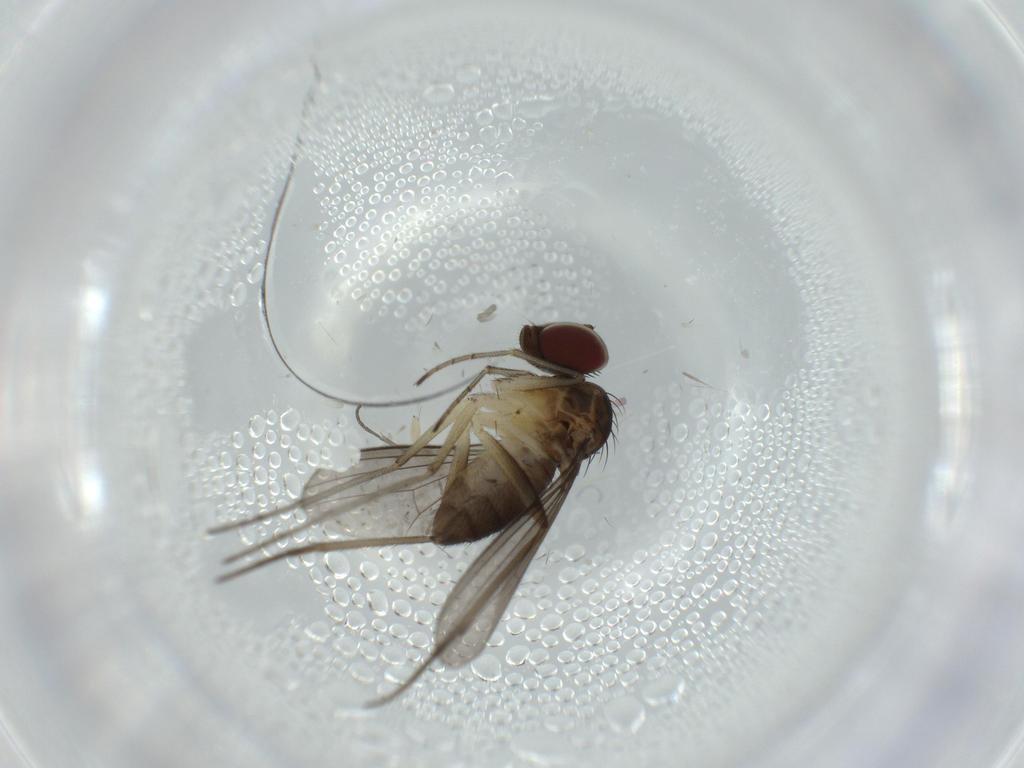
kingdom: Animalia
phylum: Arthropoda
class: Insecta
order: Diptera
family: Dolichopodidae
